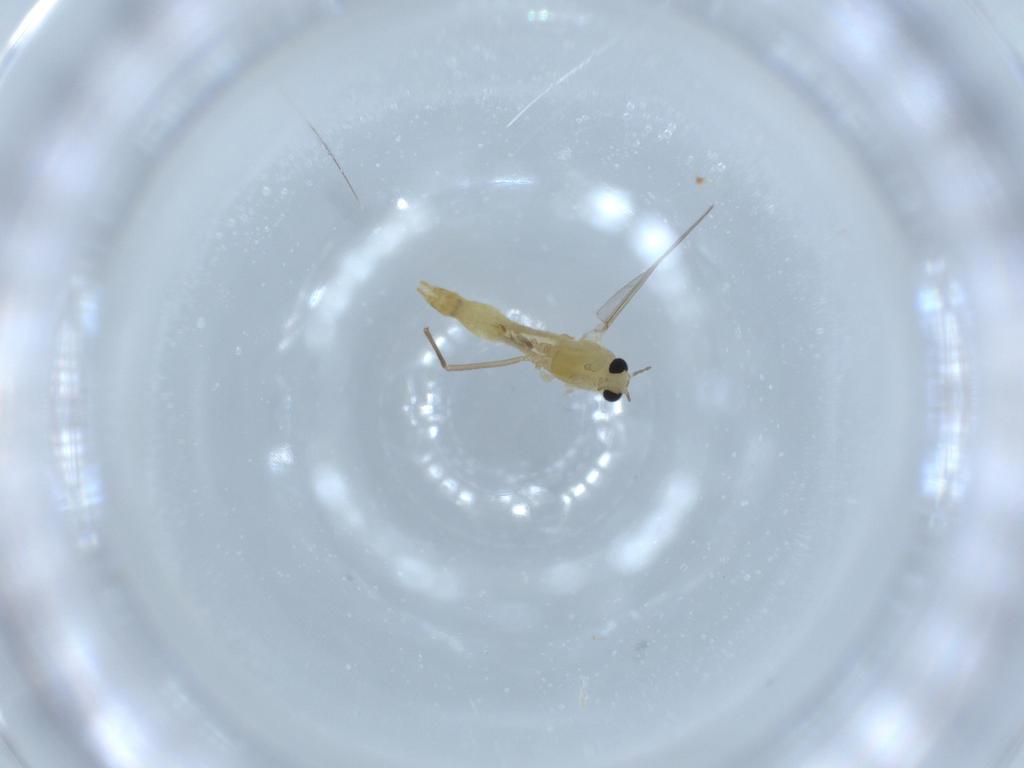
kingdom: Animalia
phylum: Arthropoda
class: Insecta
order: Diptera
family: Chironomidae
